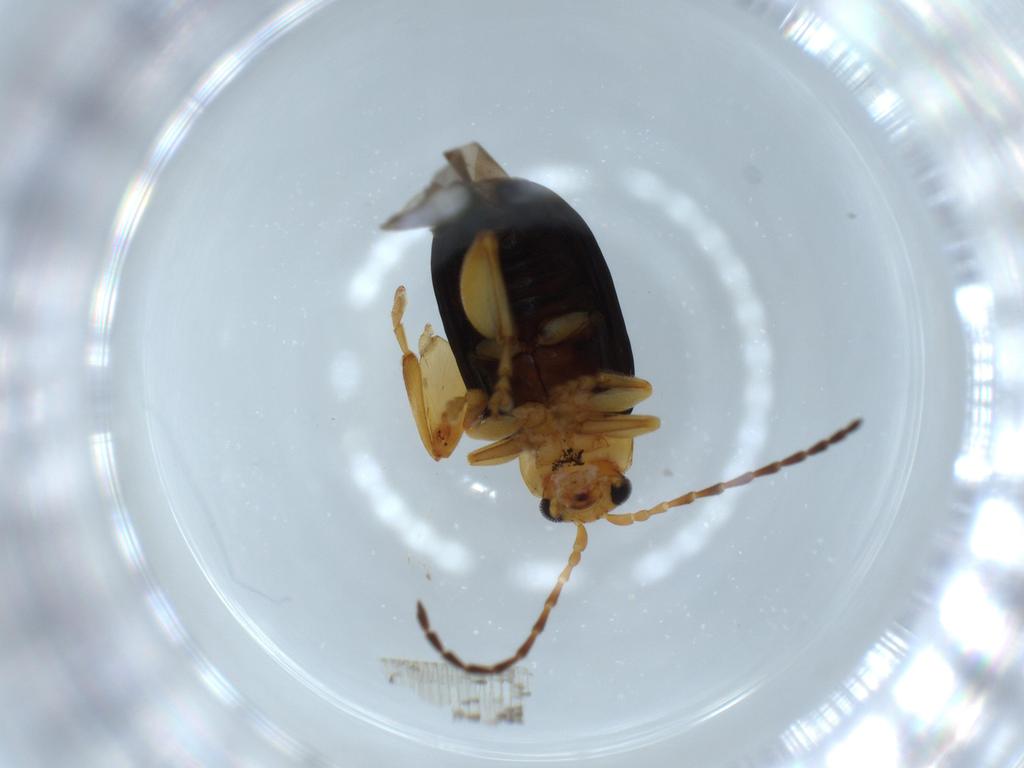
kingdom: Animalia
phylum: Arthropoda
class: Insecta
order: Coleoptera
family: Chrysomelidae
